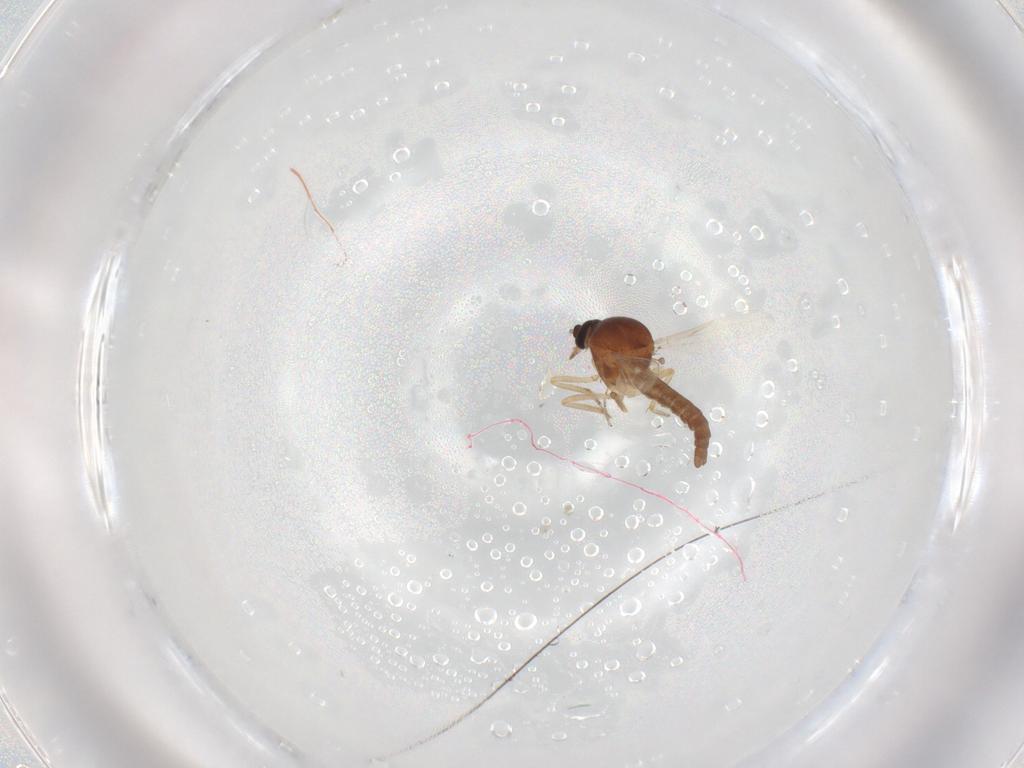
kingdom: Animalia
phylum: Arthropoda
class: Insecta
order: Diptera
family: Ceratopogonidae
